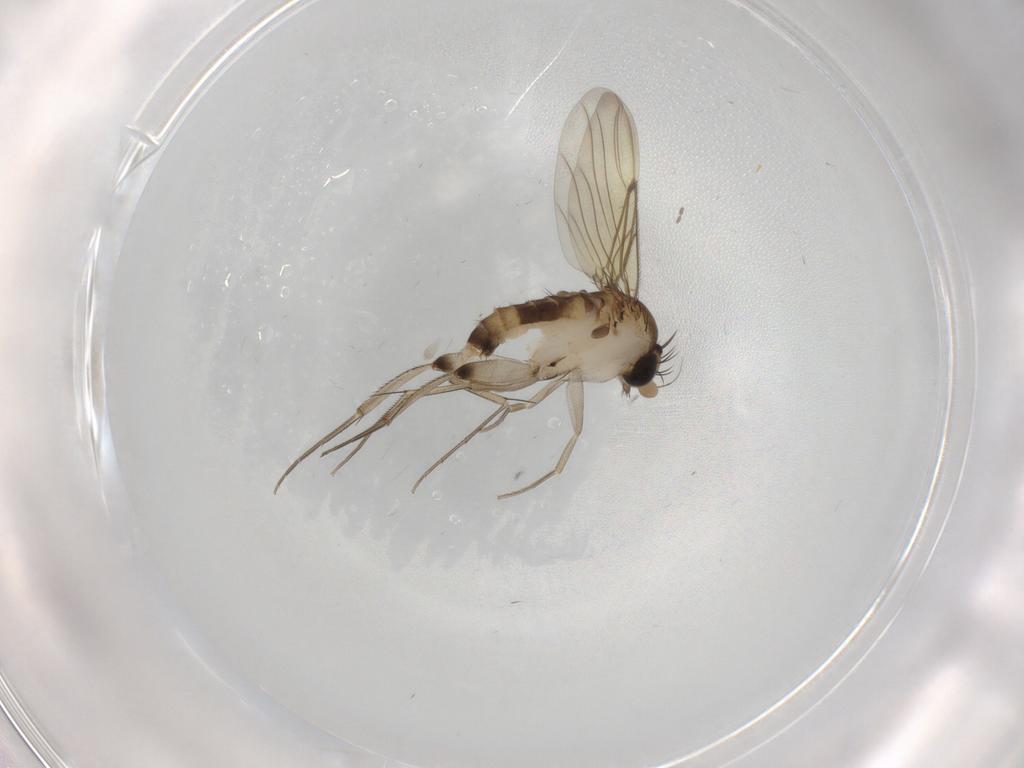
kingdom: Animalia
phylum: Arthropoda
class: Insecta
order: Diptera
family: Phoridae
